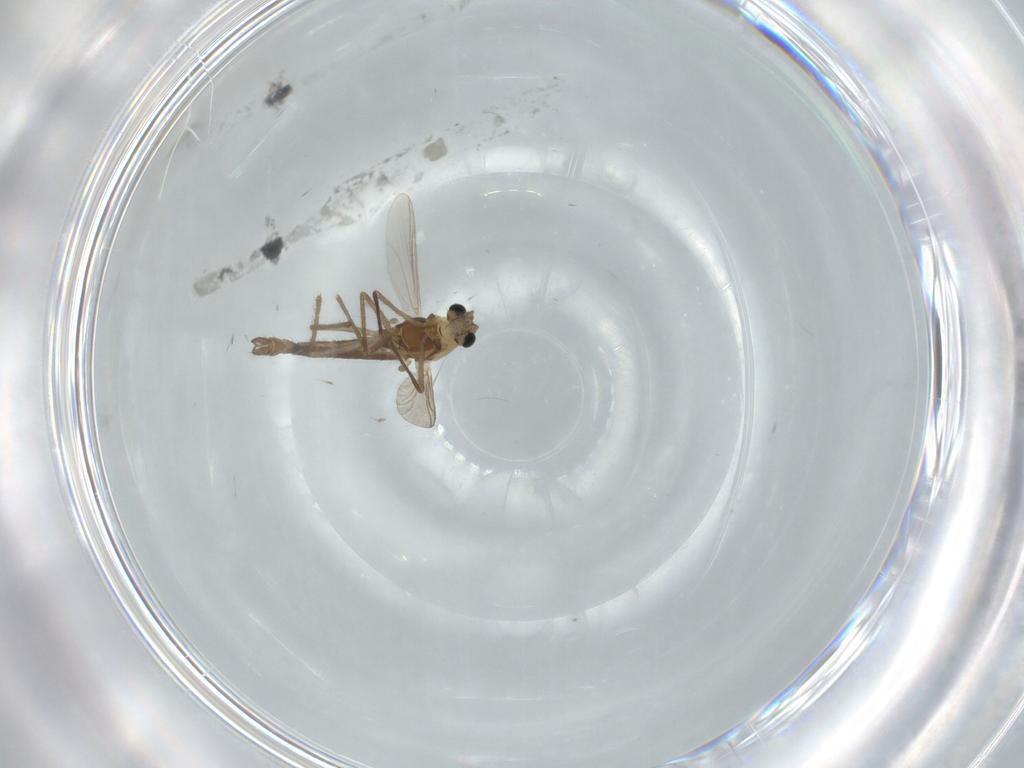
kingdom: Animalia
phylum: Arthropoda
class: Insecta
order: Diptera
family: Chironomidae
